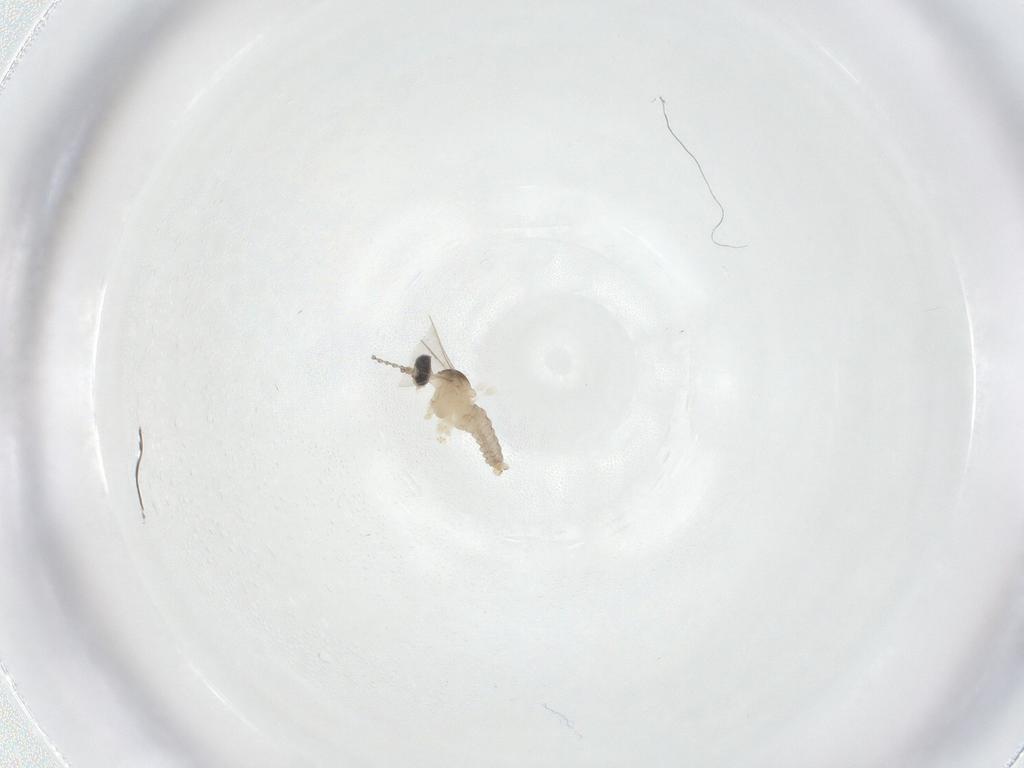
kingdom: Animalia
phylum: Arthropoda
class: Insecta
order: Diptera
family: Cecidomyiidae
